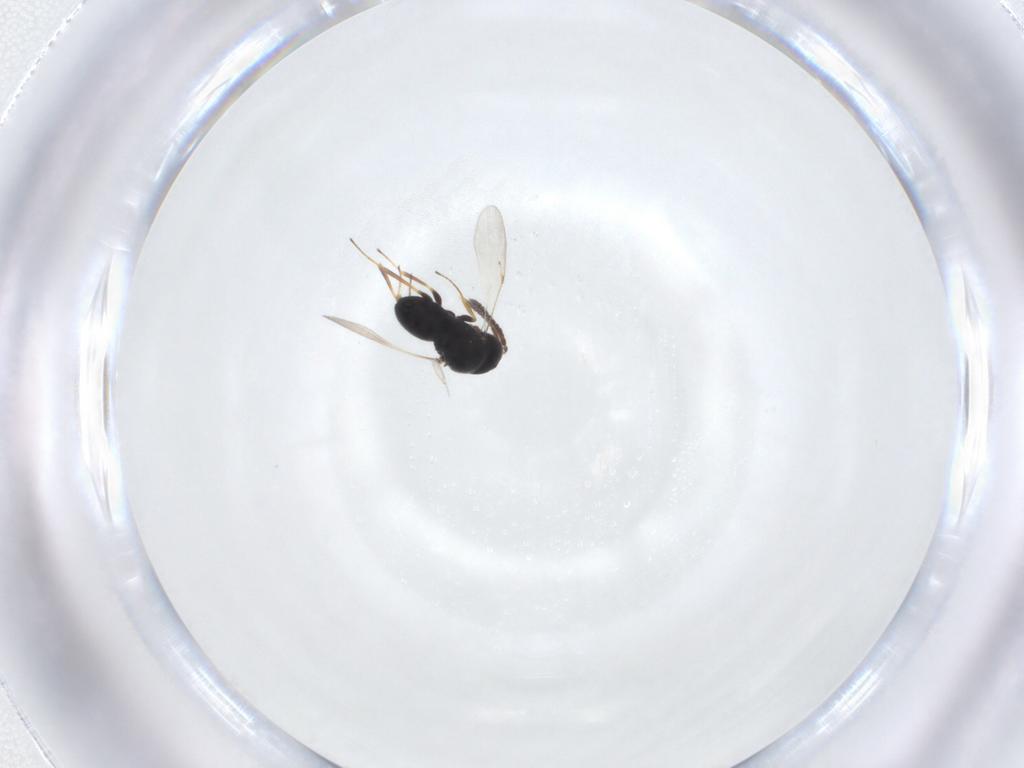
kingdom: Animalia
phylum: Arthropoda
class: Insecta
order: Hymenoptera
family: Scelionidae
